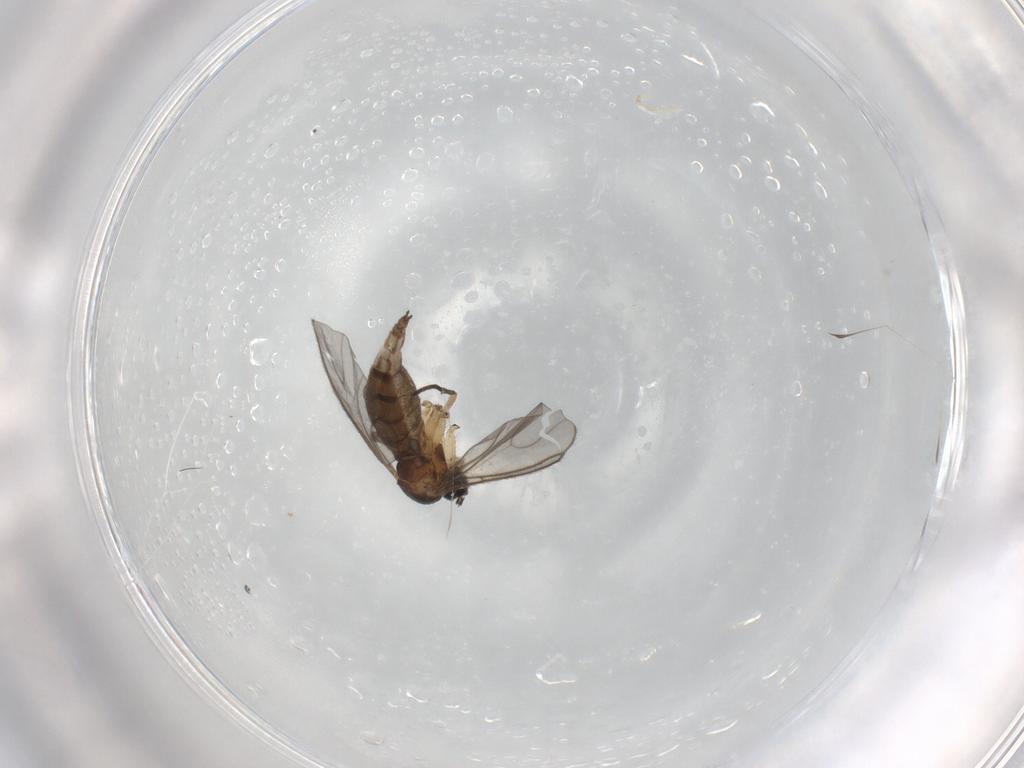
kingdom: Animalia
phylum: Arthropoda
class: Insecta
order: Diptera
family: Sciaridae
